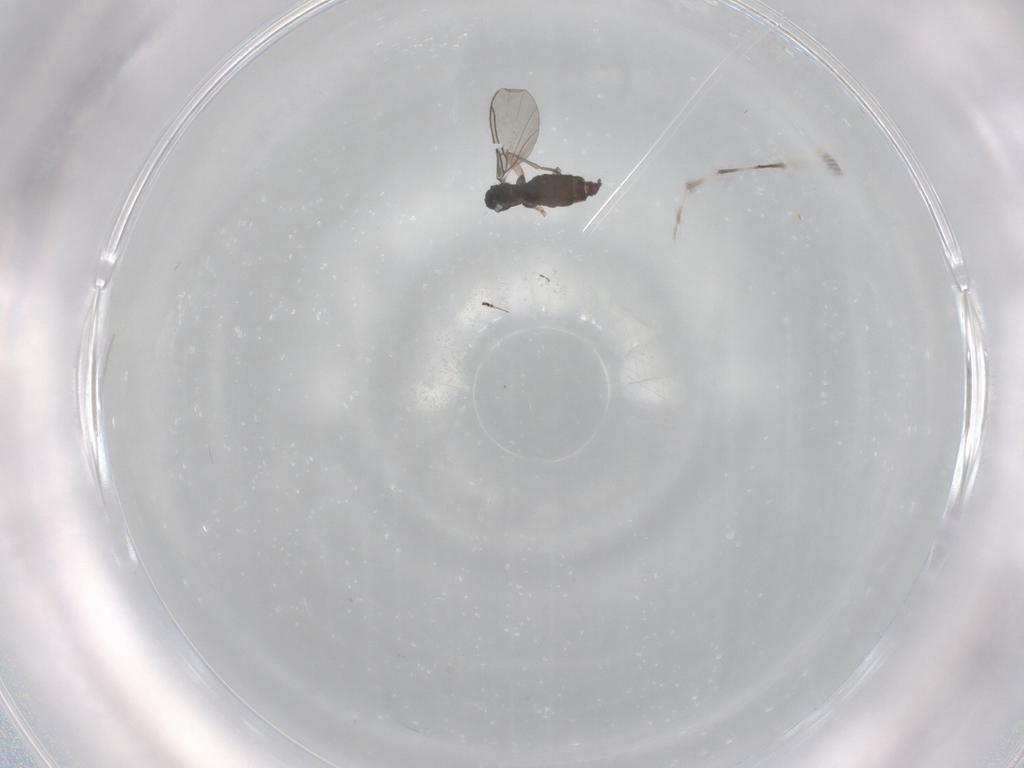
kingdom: Animalia
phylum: Arthropoda
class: Insecta
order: Diptera
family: Sciaridae
